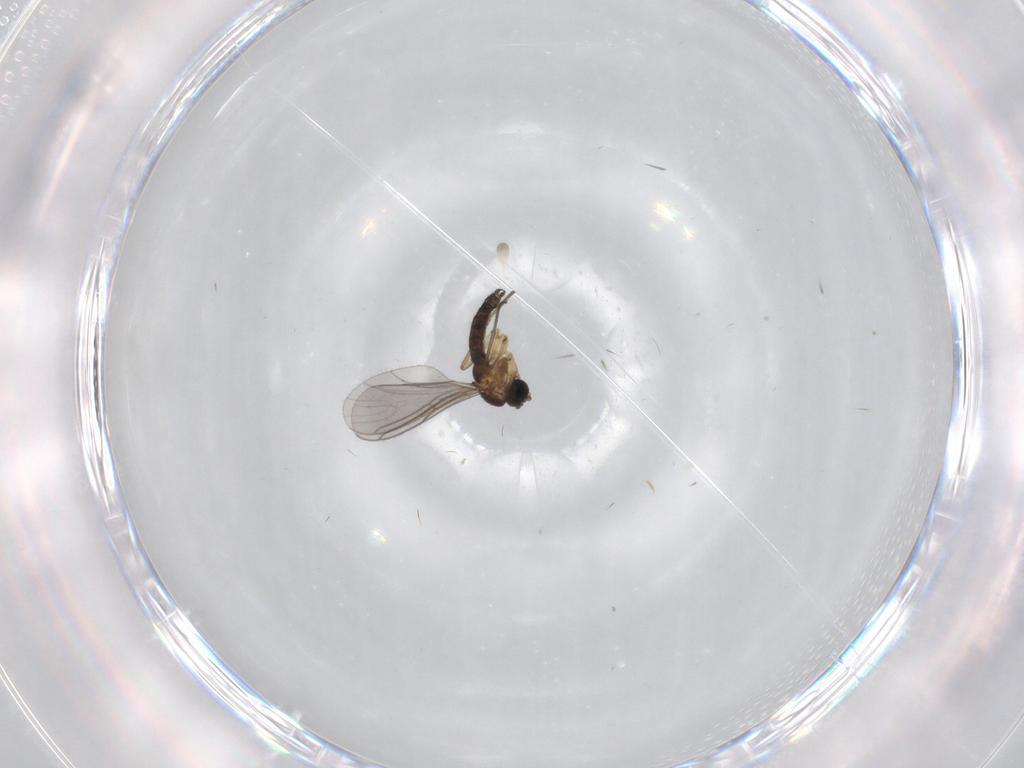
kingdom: Animalia
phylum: Arthropoda
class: Insecta
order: Diptera
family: Sciaridae
